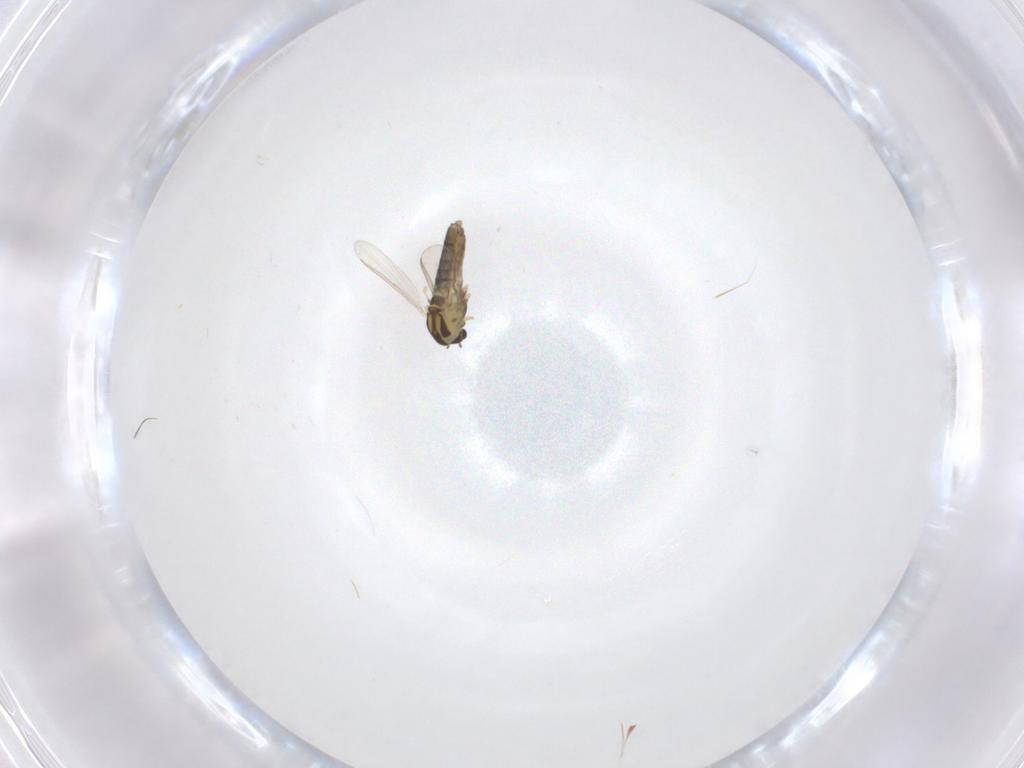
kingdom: Animalia
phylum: Arthropoda
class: Insecta
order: Diptera
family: Chironomidae
